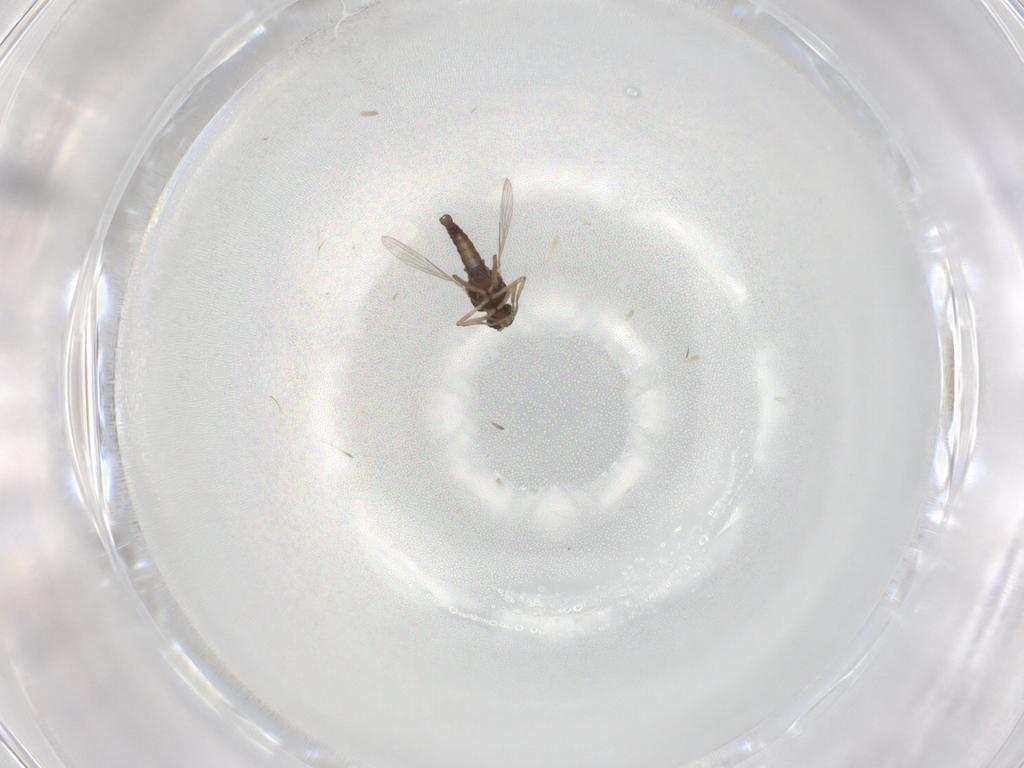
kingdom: Animalia
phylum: Arthropoda
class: Insecta
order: Diptera
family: Ceratopogonidae
